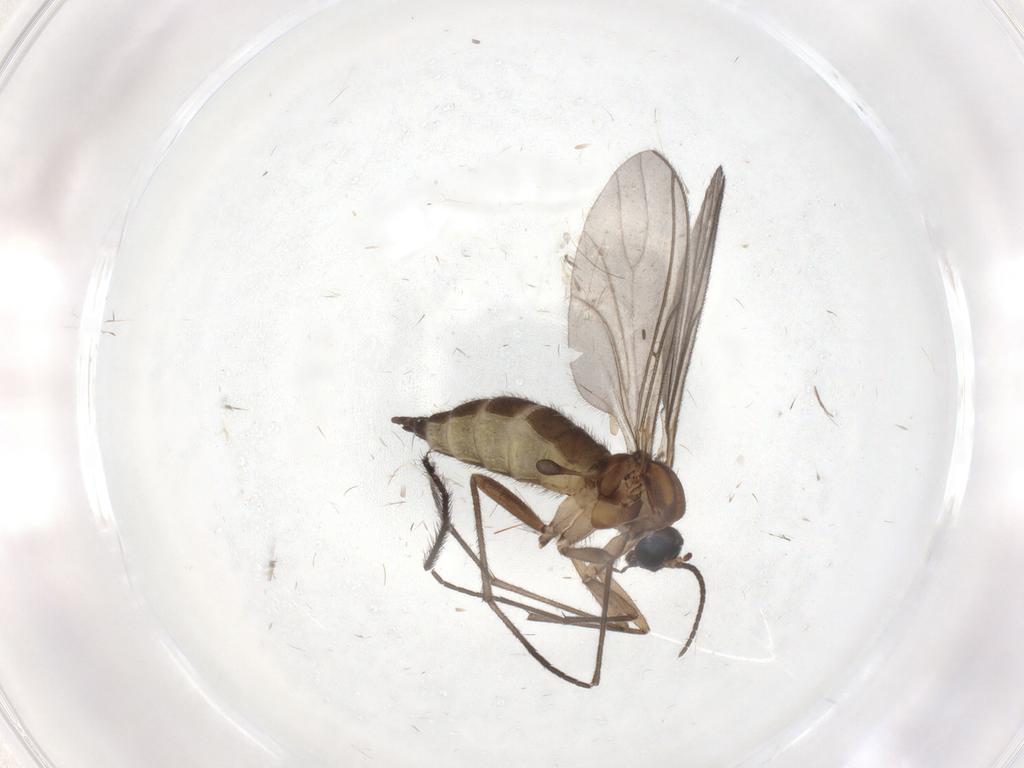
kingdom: Animalia
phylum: Arthropoda
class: Insecta
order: Diptera
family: Sciaridae
